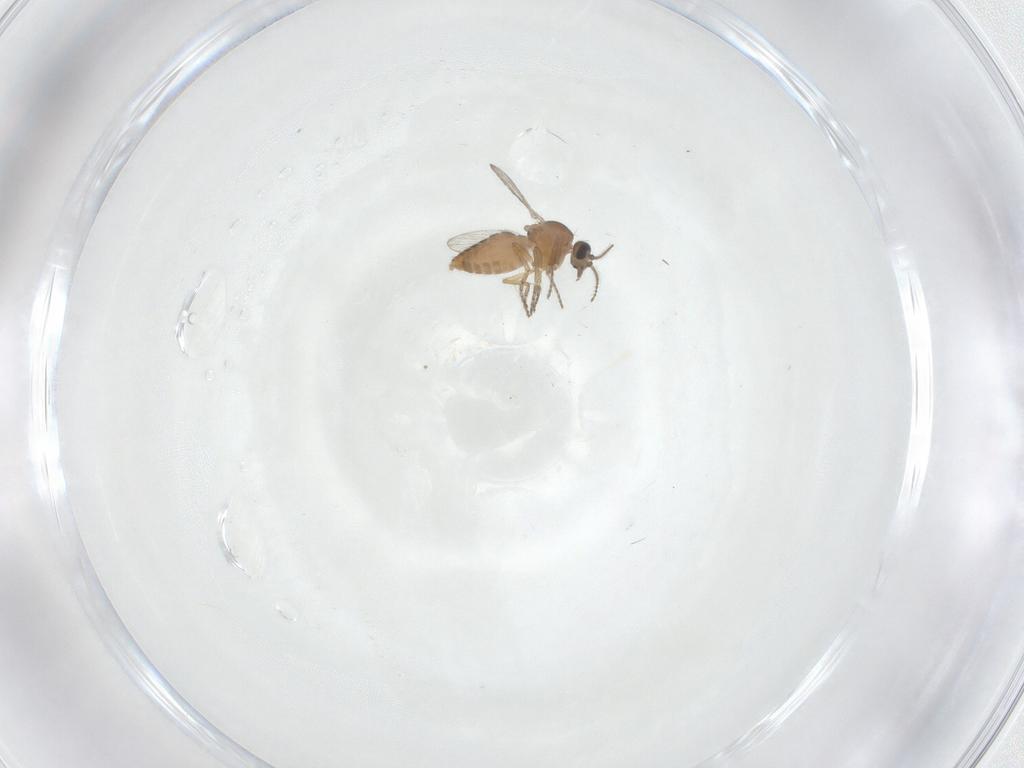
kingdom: Animalia
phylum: Arthropoda
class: Insecta
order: Diptera
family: Ceratopogonidae
